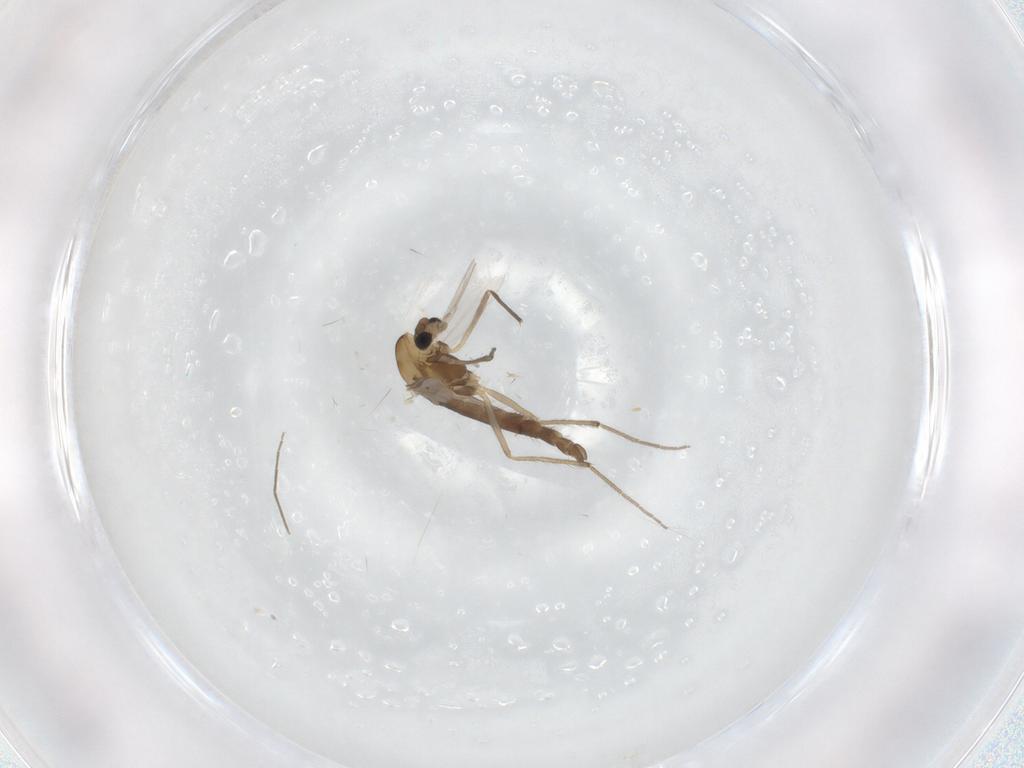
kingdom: Animalia
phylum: Arthropoda
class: Insecta
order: Diptera
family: Chironomidae
